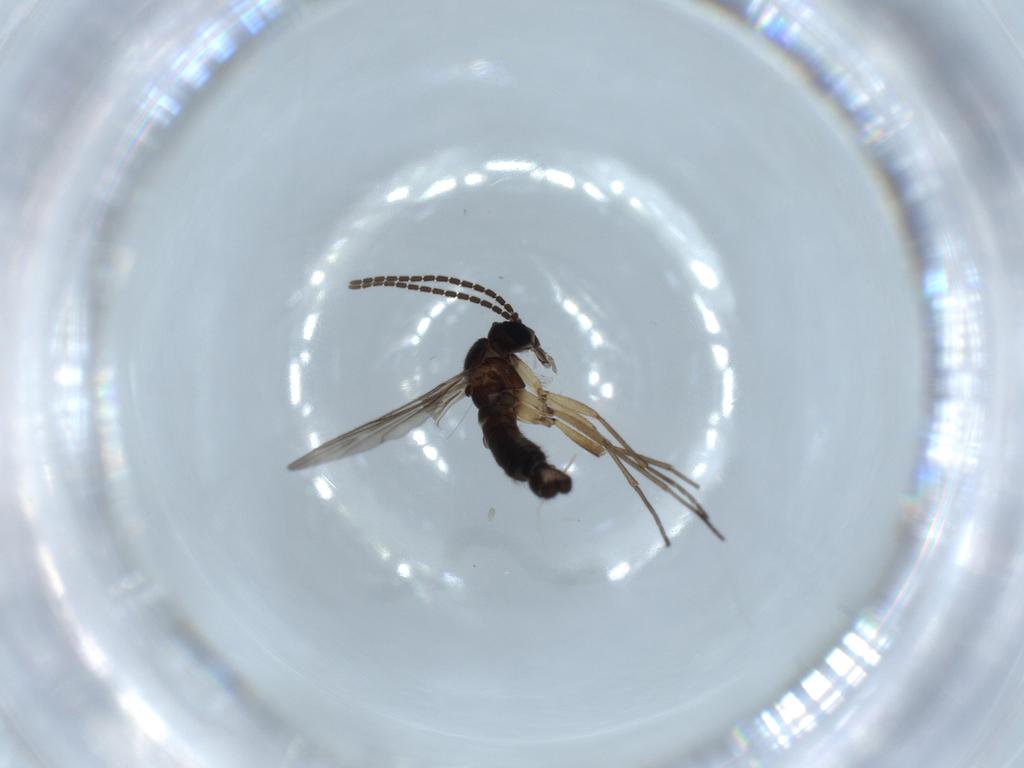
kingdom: Animalia
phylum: Arthropoda
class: Insecta
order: Diptera
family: Sciaridae
